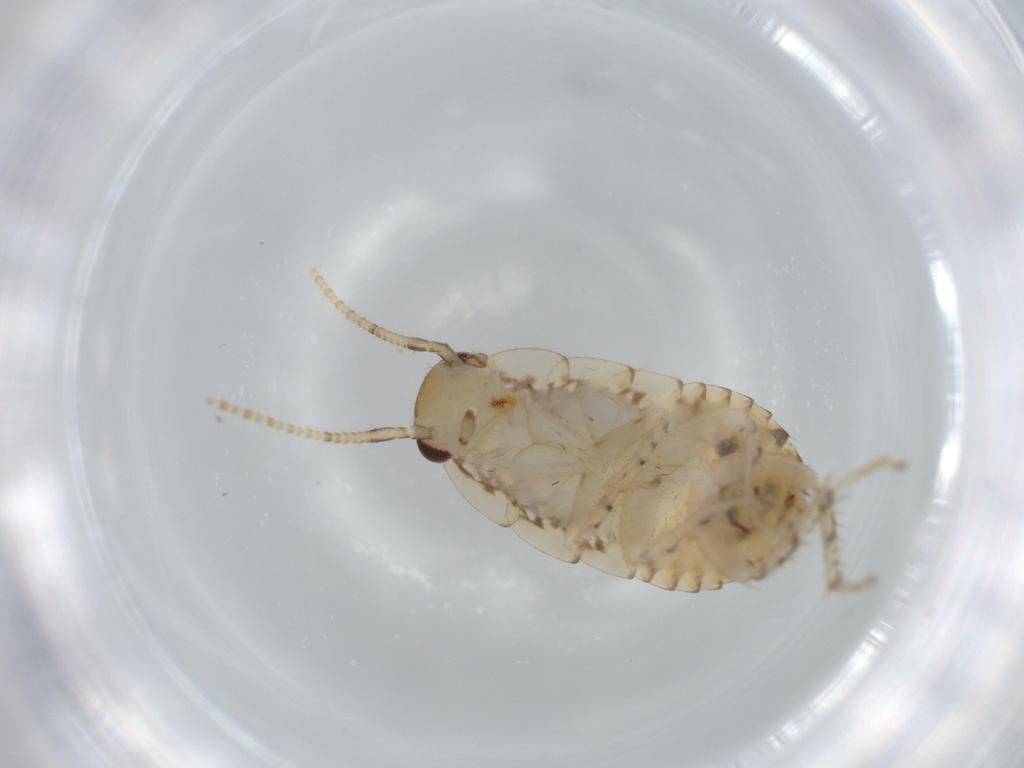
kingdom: Animalia
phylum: Arthropoda
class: Insecta
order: Blattodea
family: Ectobiidae
